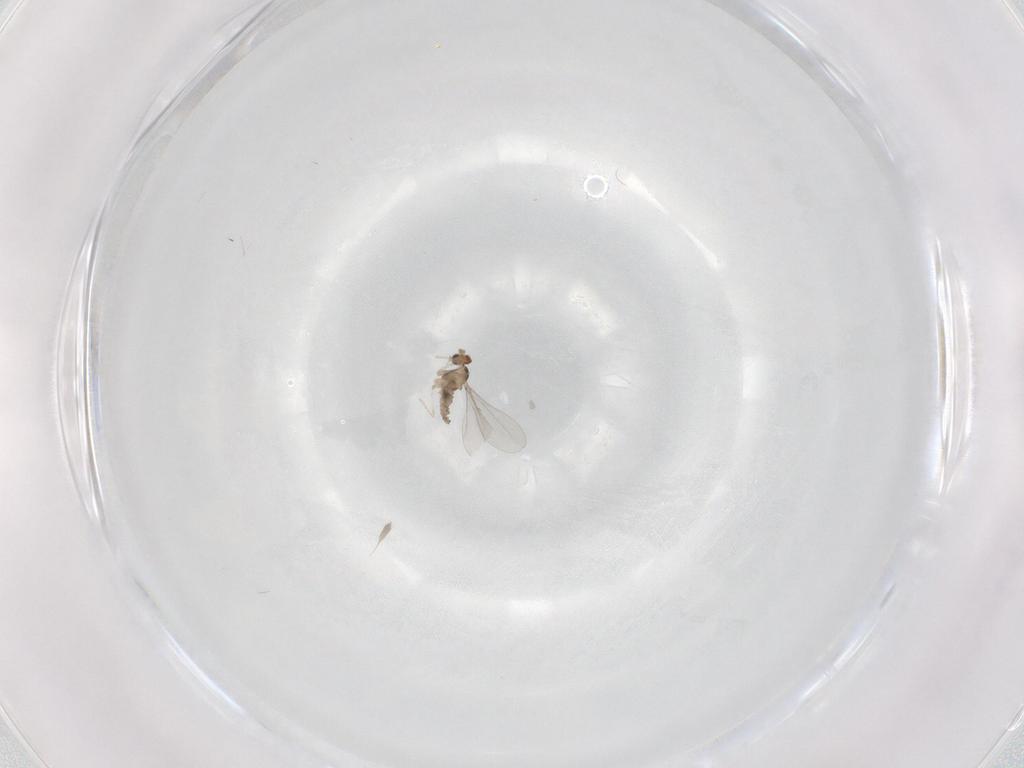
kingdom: Animalia
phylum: Arthropoda
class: Insecta
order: Diptera
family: Cecidomyiidae
